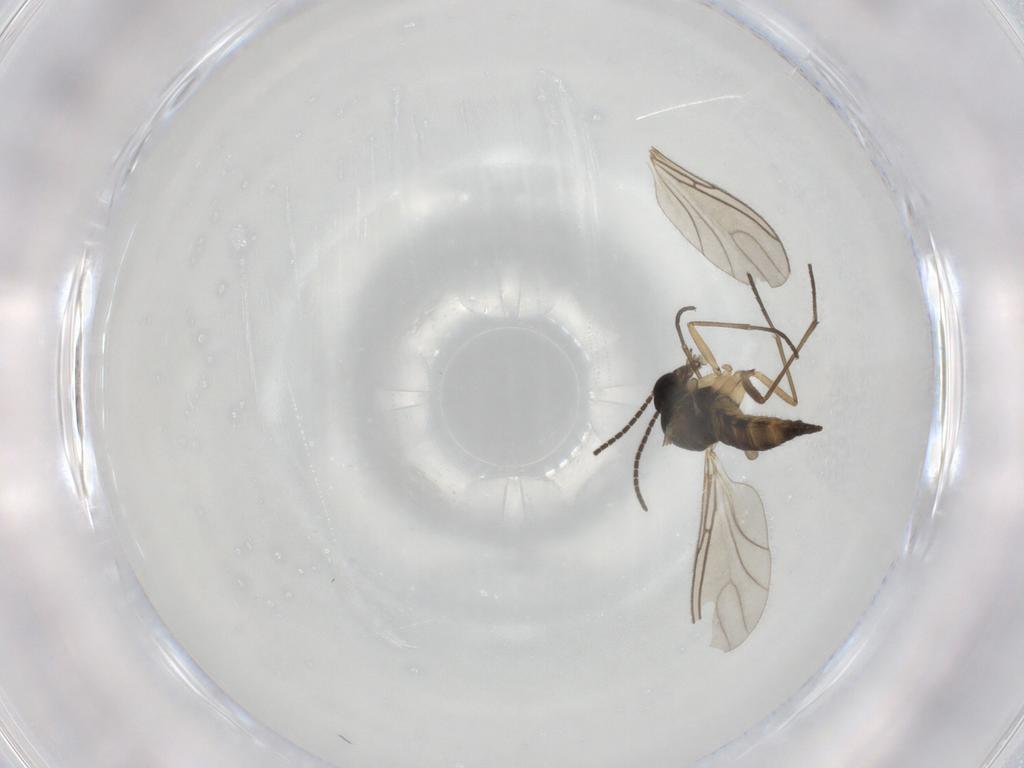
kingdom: Animalia
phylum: Arthropoda
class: Insecta
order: Diptera
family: Sciaridae
